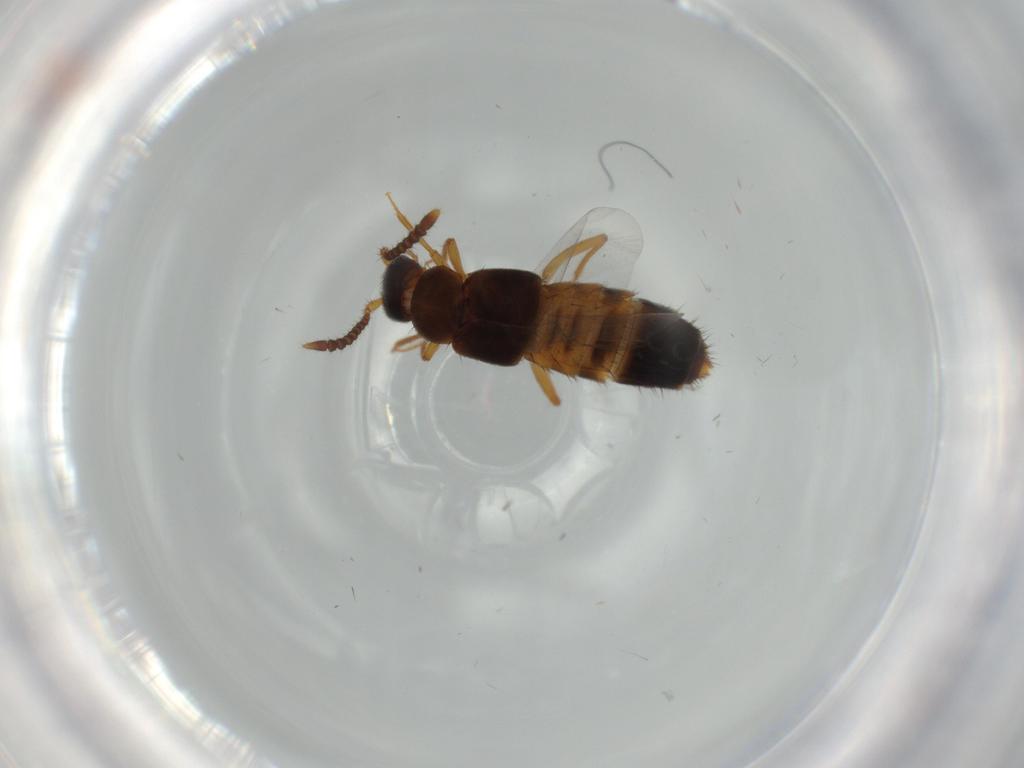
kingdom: Animalia
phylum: Arthropoda
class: Insecta
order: Coleoptera
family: Staphylinidae
